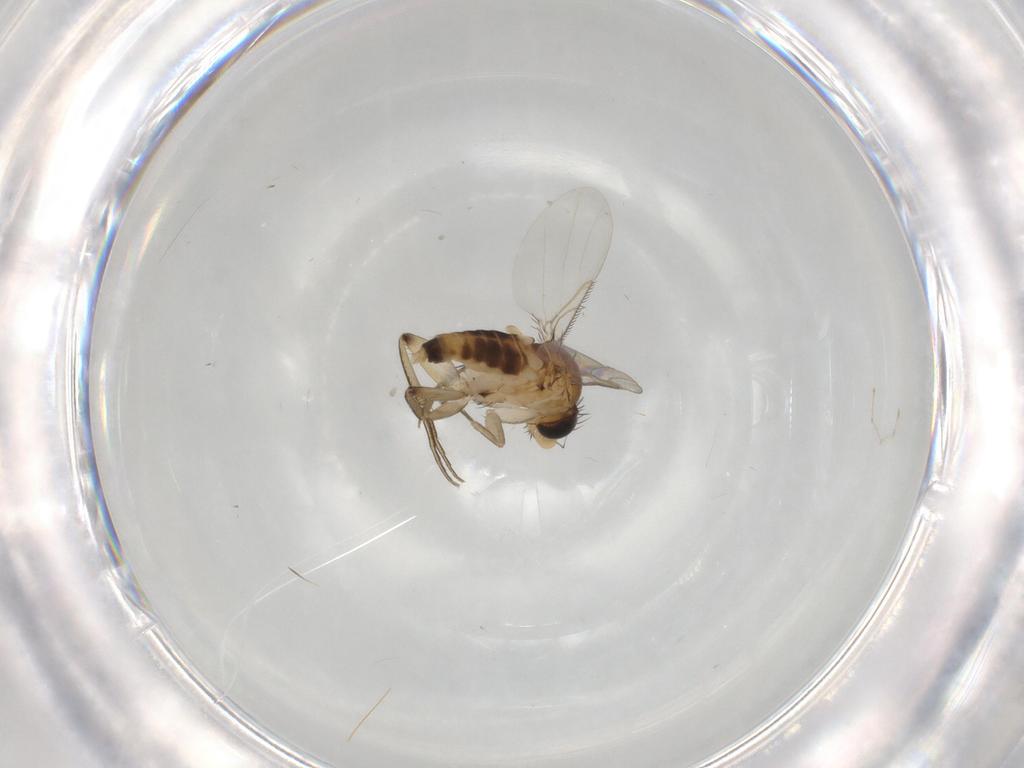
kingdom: Animalia
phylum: Arthropoda
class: Insecta
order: Diptera
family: Phoridae
